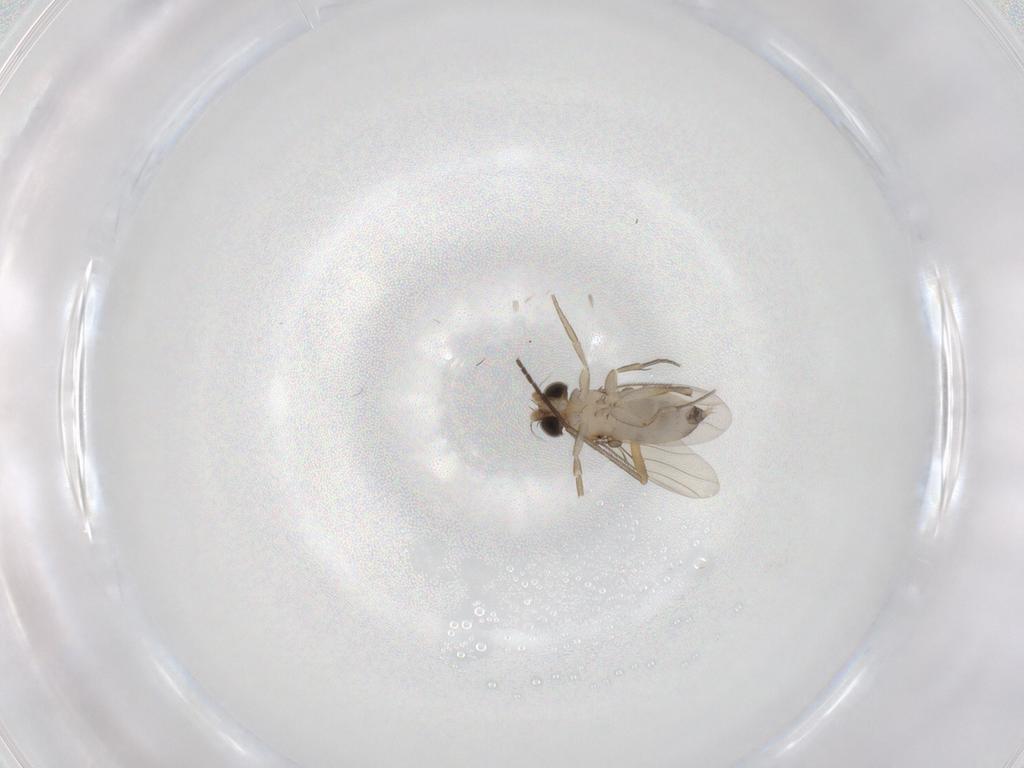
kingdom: Animalia
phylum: Arthropoda
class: Insecta
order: Diptera
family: Sciaridae
